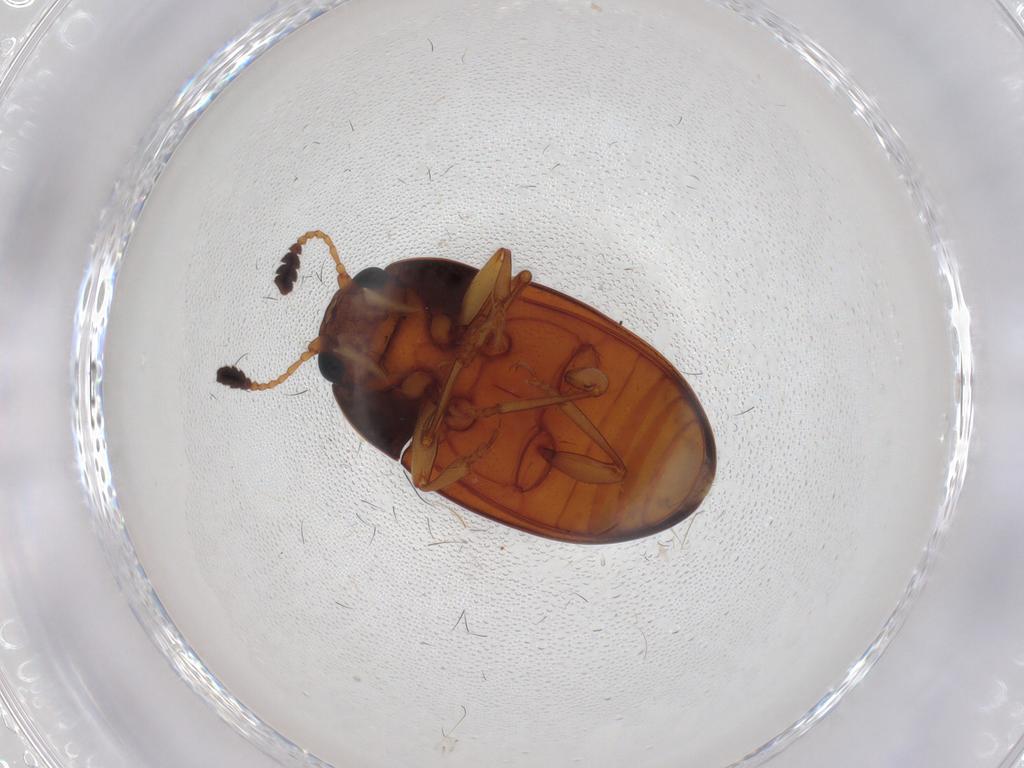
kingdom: Animalia
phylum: Arthropoda
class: Insecta
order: Coleoptera
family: Erotylidae
